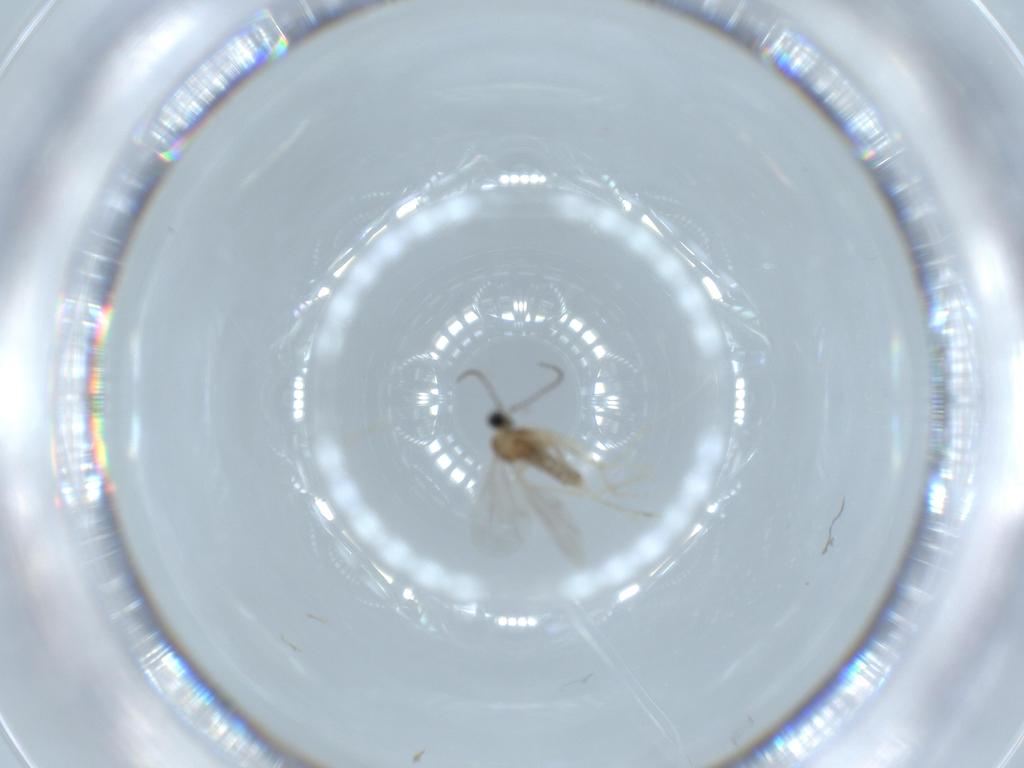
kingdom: Animalia
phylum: Arthropoda
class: Insecta
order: Diptera
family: Cecidomyiidae
